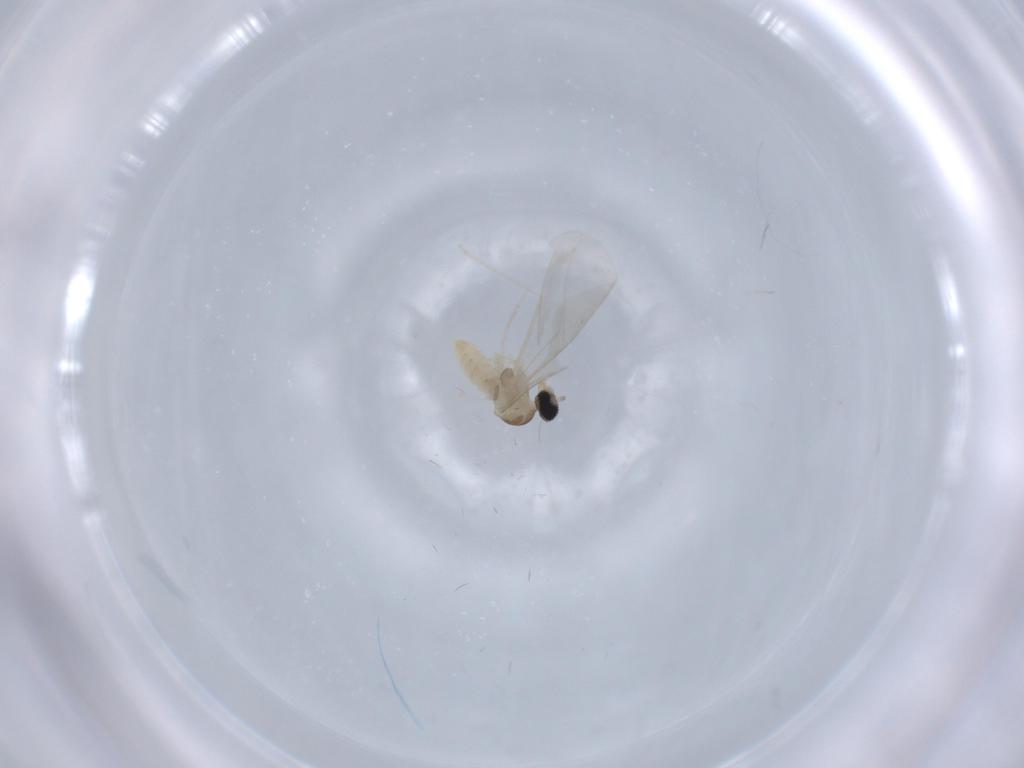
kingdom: Animalia
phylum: Arthropoda
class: Insecta
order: Diptera
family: Cecidomyiidae
